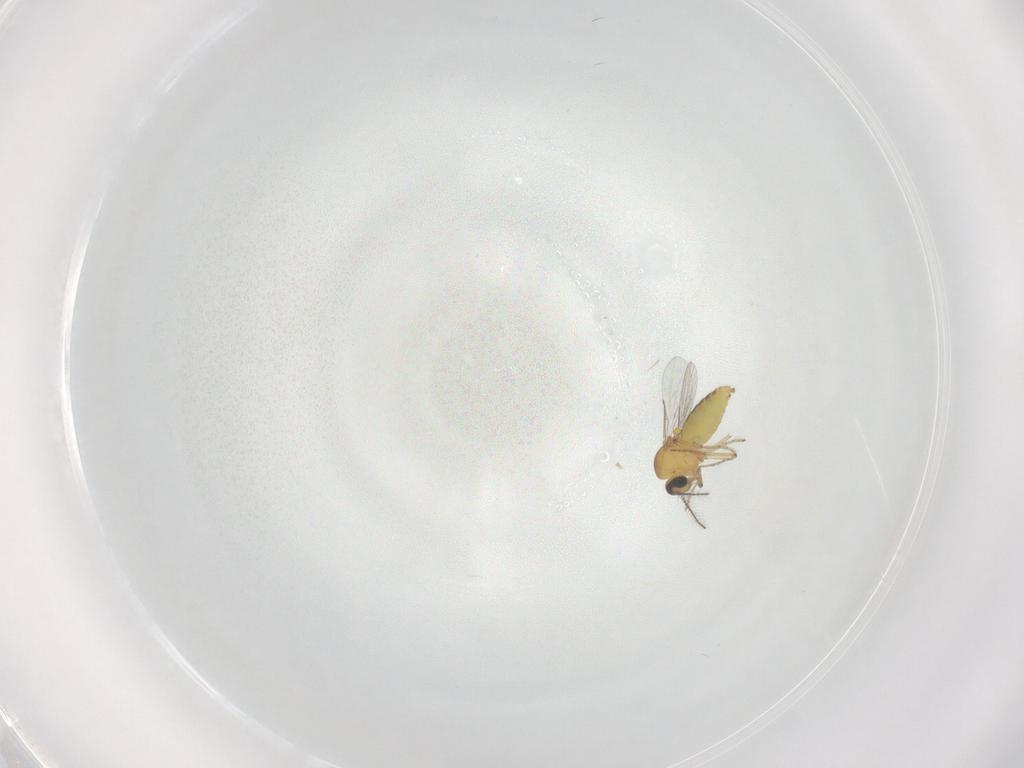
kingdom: Animalia
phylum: Arthropoda
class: Insecta
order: Diptera
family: Ceratopogonidae
